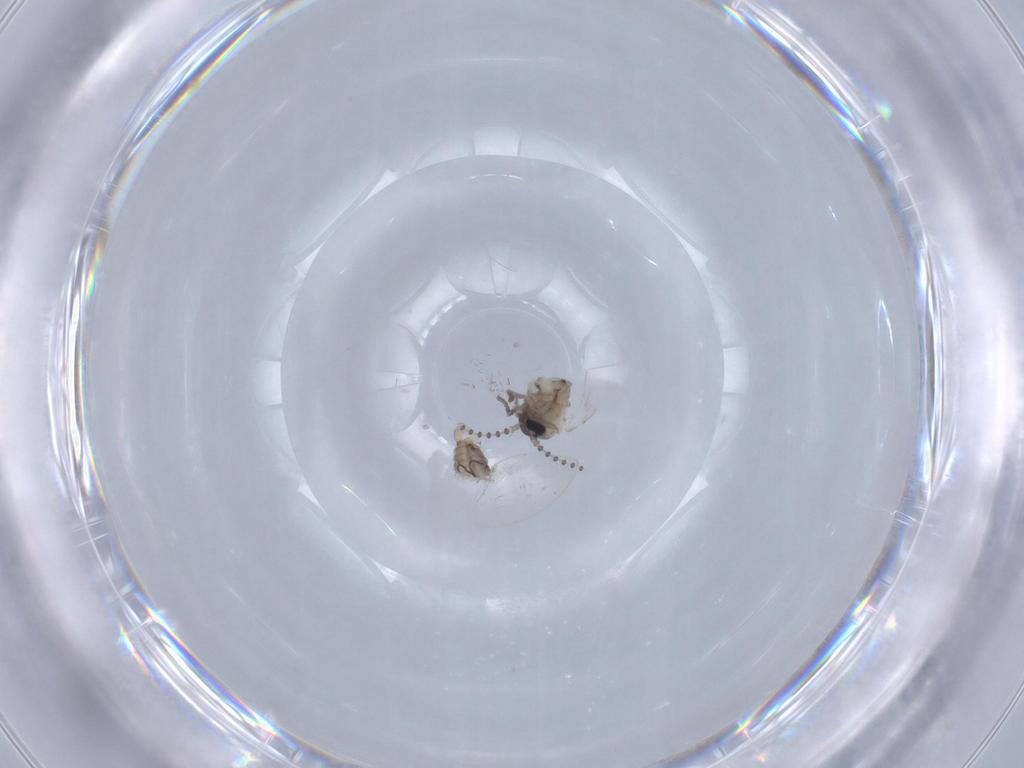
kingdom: Animalia
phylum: Arthropoda
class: Insecta
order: Diptera
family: Psychodidae
